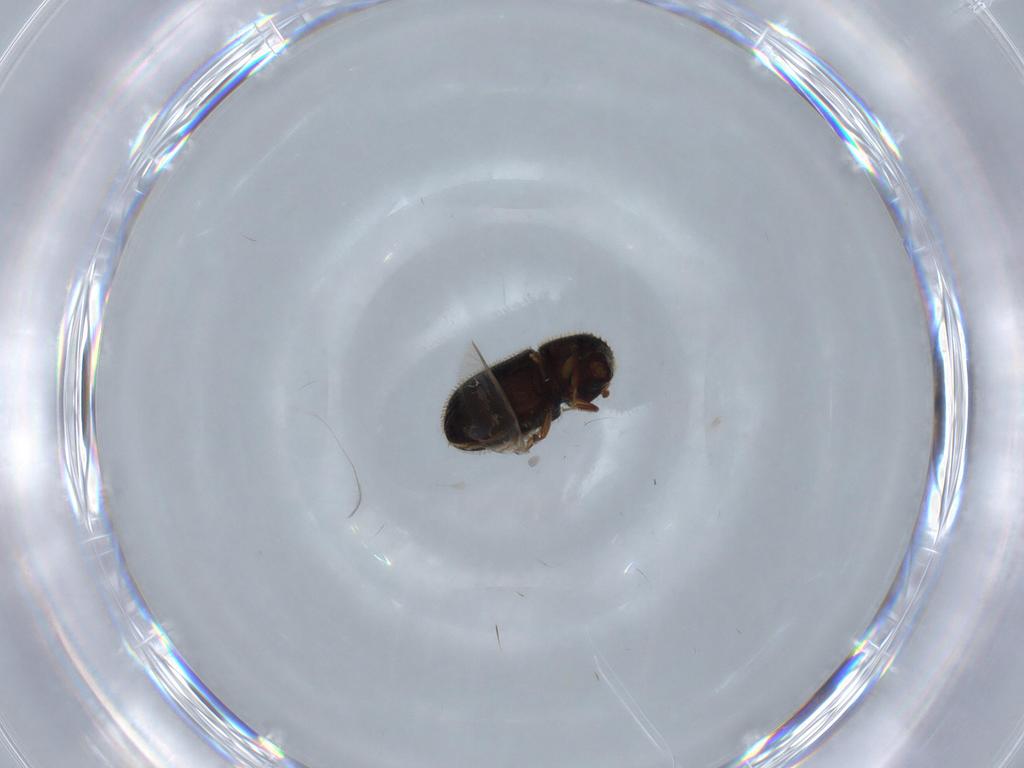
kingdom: Animalia
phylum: Arthropoda
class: Insecta
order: Coleoptera
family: Curculionidae
